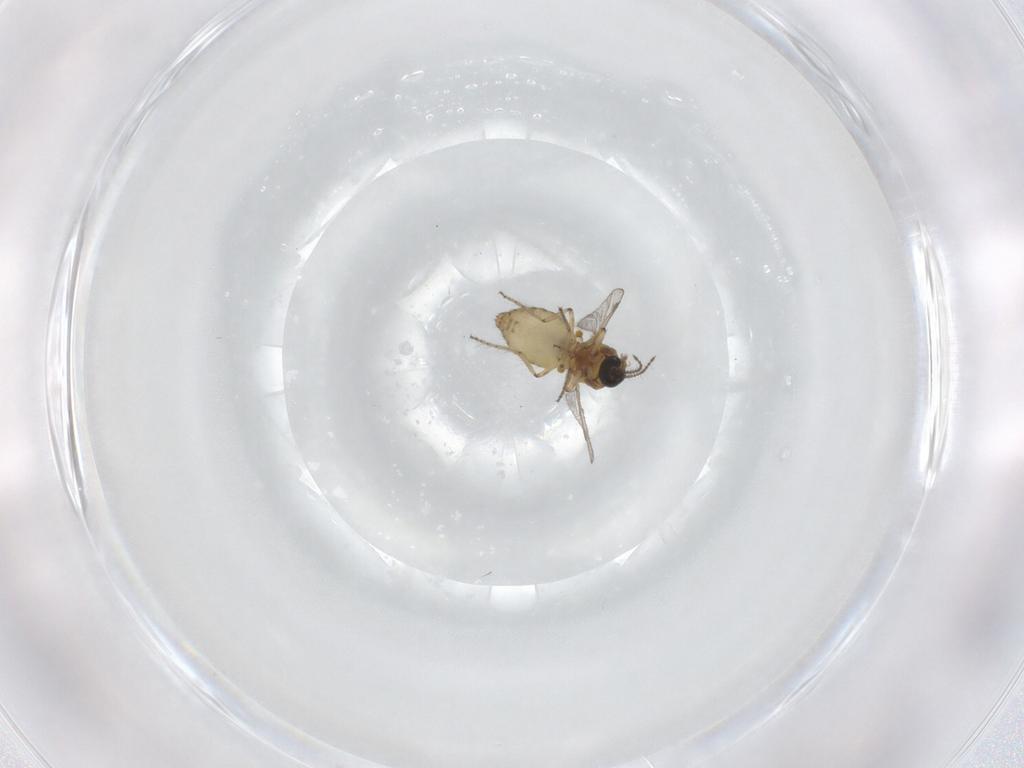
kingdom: Animalia
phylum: Arthropoda
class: Insecta
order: Diptera
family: Ceratopogonidae
